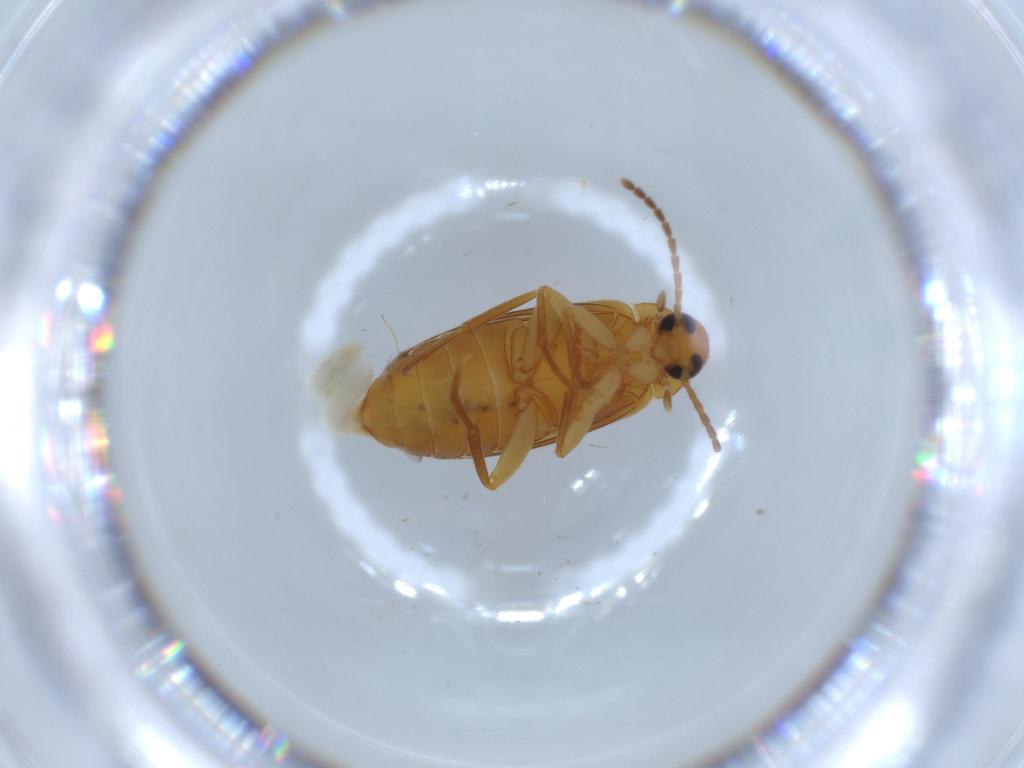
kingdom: Animalia
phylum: Arthropoda
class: Insecta
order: Coleoptera
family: Scraptiidae
